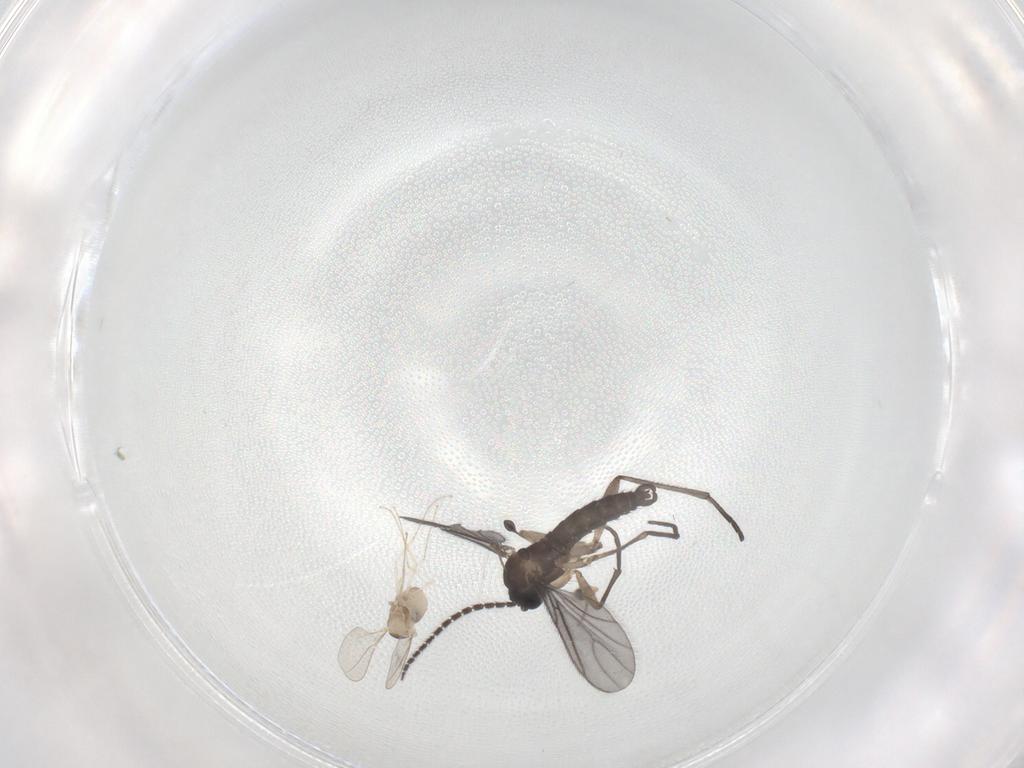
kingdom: Animalia
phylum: Arthropoda
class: Insecta
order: Diptera
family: Sciaridae
